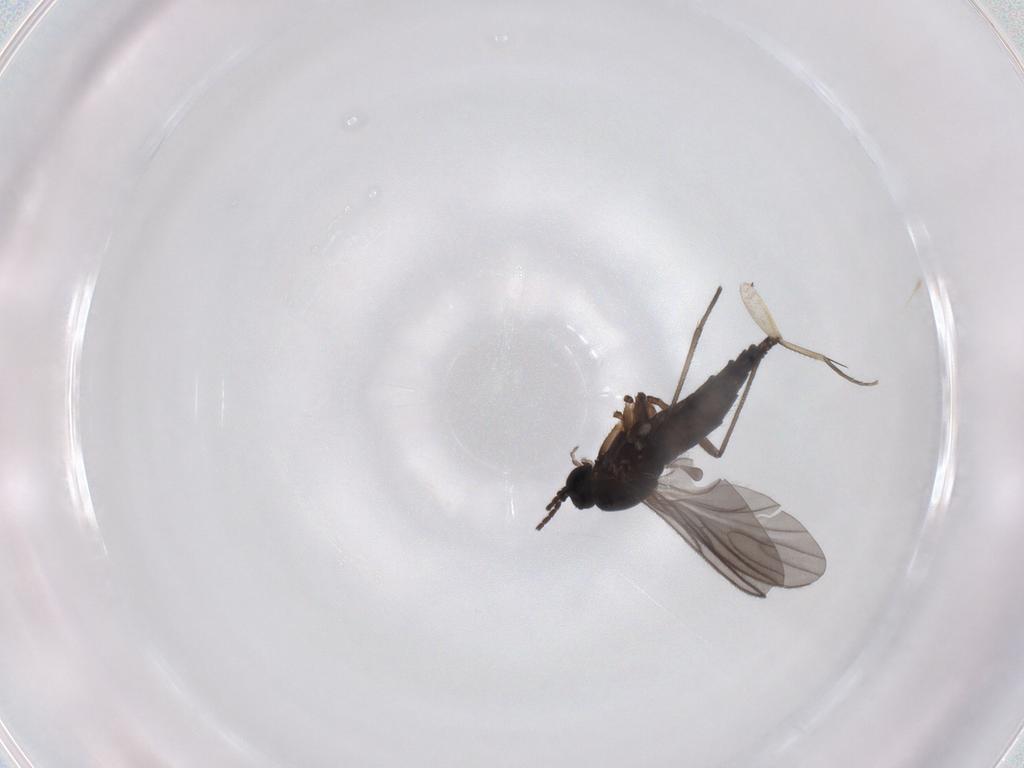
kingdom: Animalia
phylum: Arthropoda
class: Insecta
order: Diptera
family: Sciaridae
